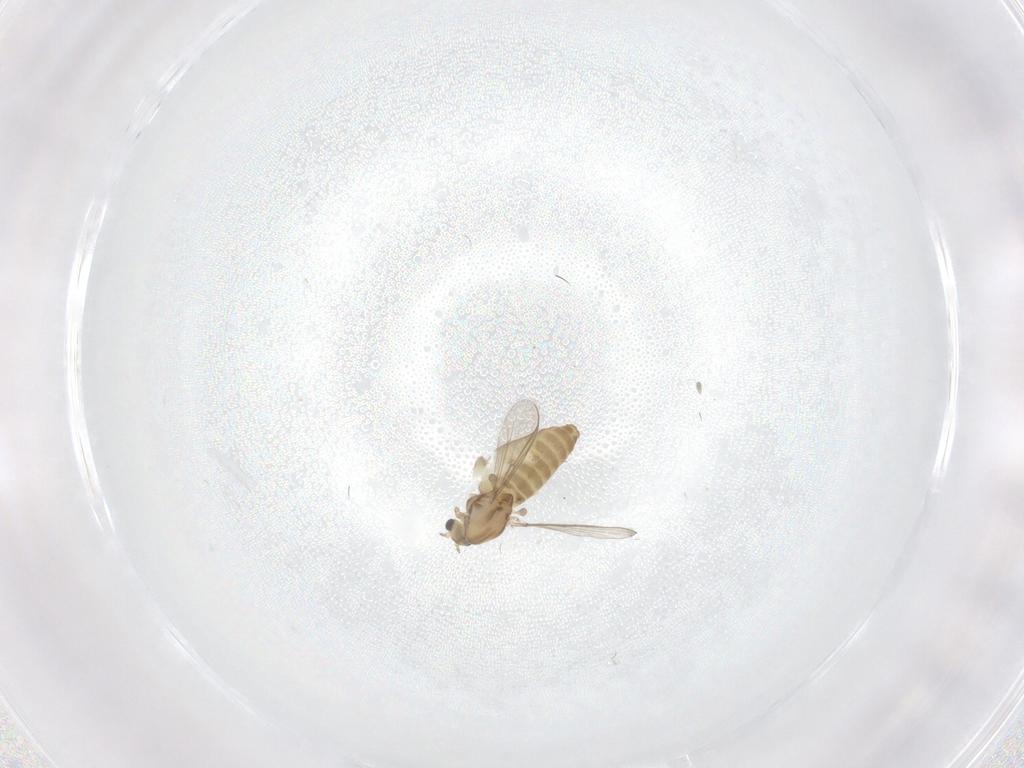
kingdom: Animalia
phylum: Arthropoda
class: Insecta
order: Diptera
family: Chironomidae
